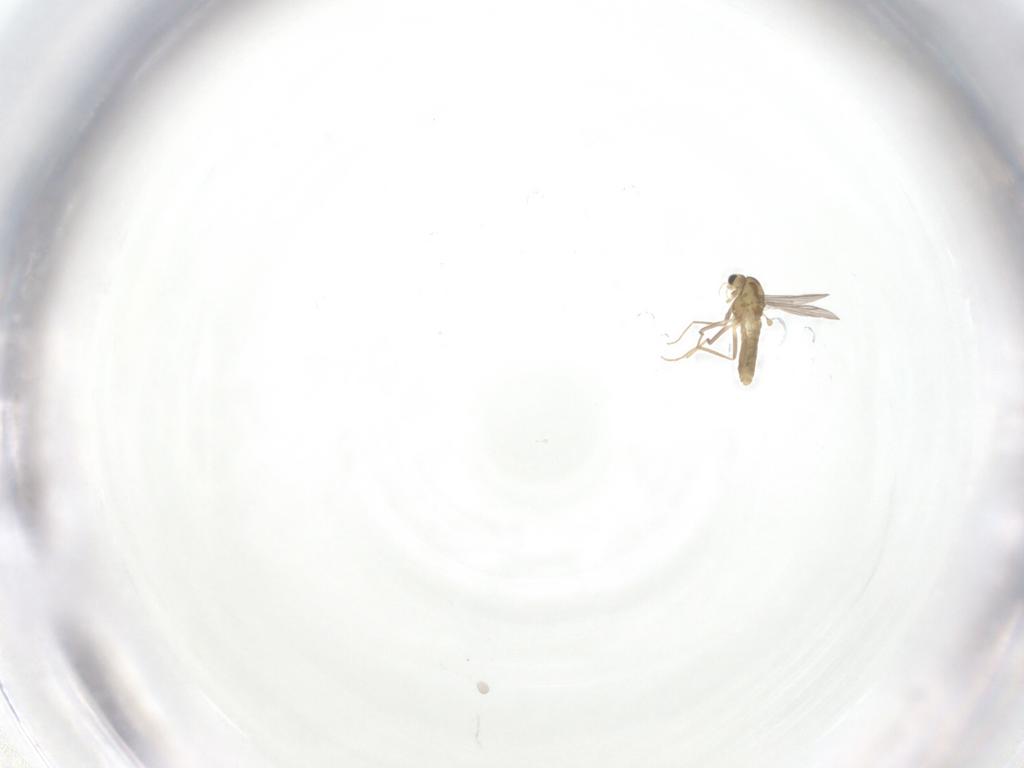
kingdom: Animalia
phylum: Arthropoda
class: Insecta
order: Diptera
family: Chironomidae
